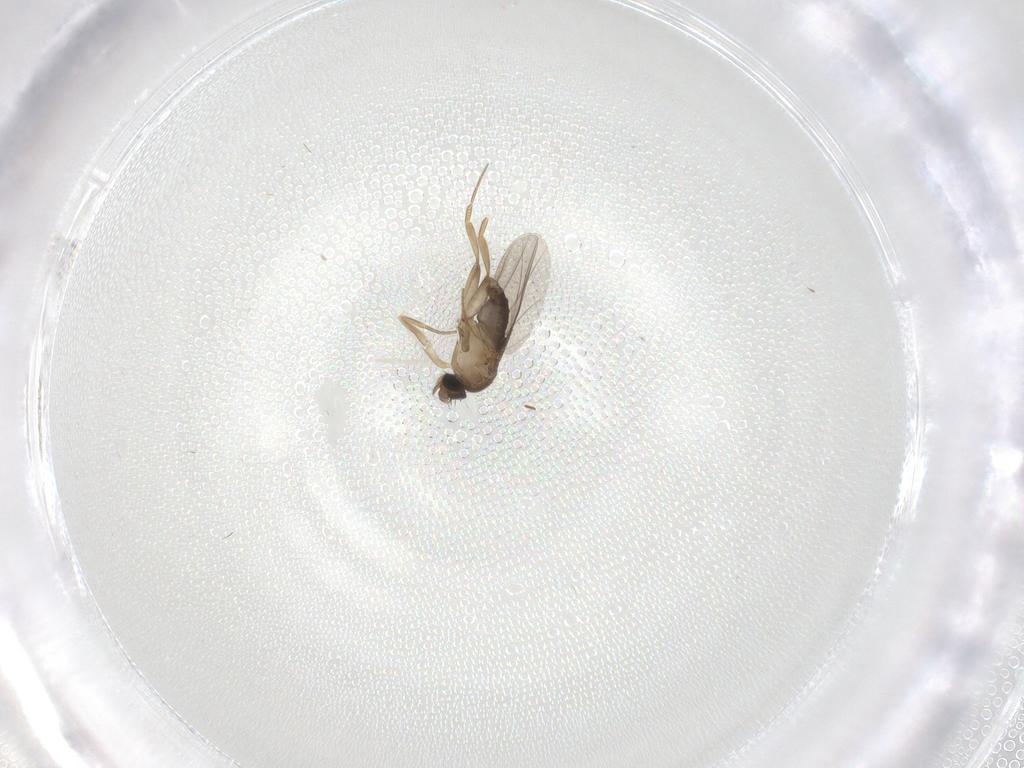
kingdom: Animalia
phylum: Arthropoda
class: Insecta
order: Diptera
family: Phoridae
